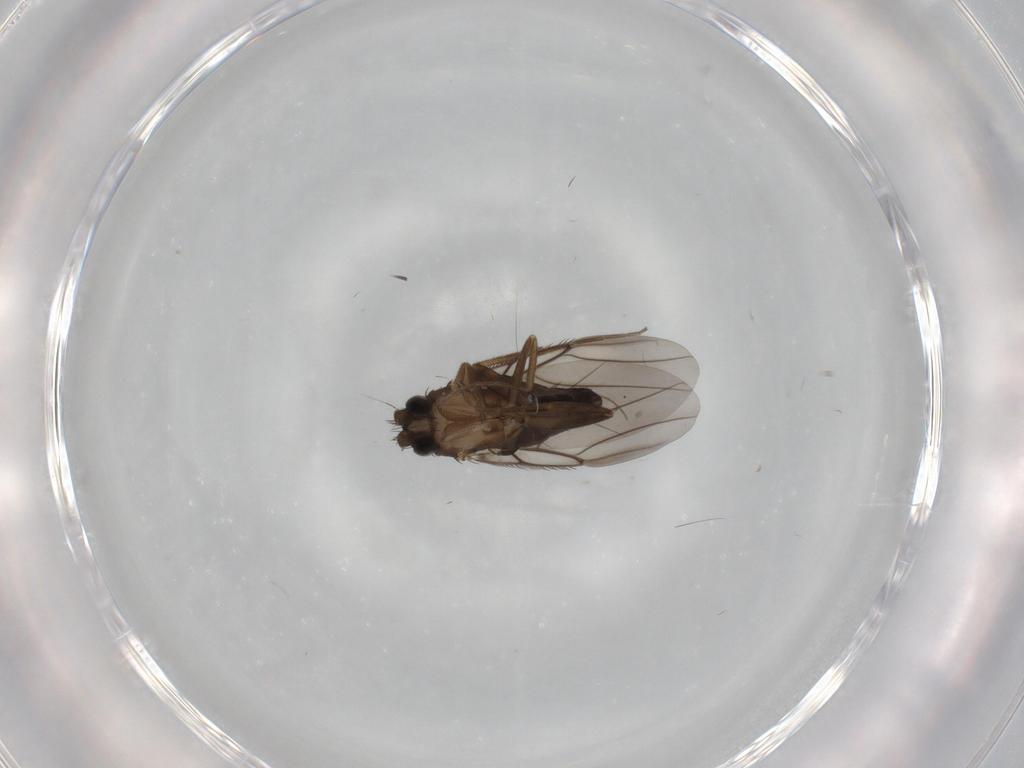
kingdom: Animalia
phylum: Arthropoda
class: Insecta
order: Diptera
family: Phoridae
